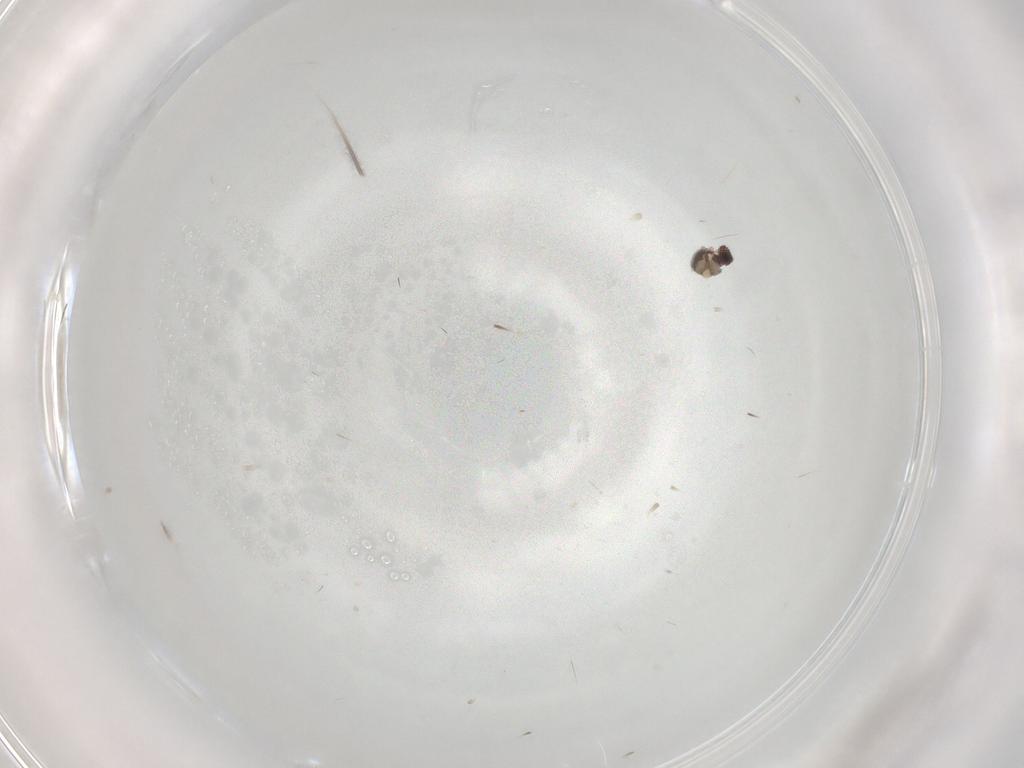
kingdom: Animalia
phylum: Arthropoda
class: Insecta
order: Diptera
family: Cecidomyiidae
